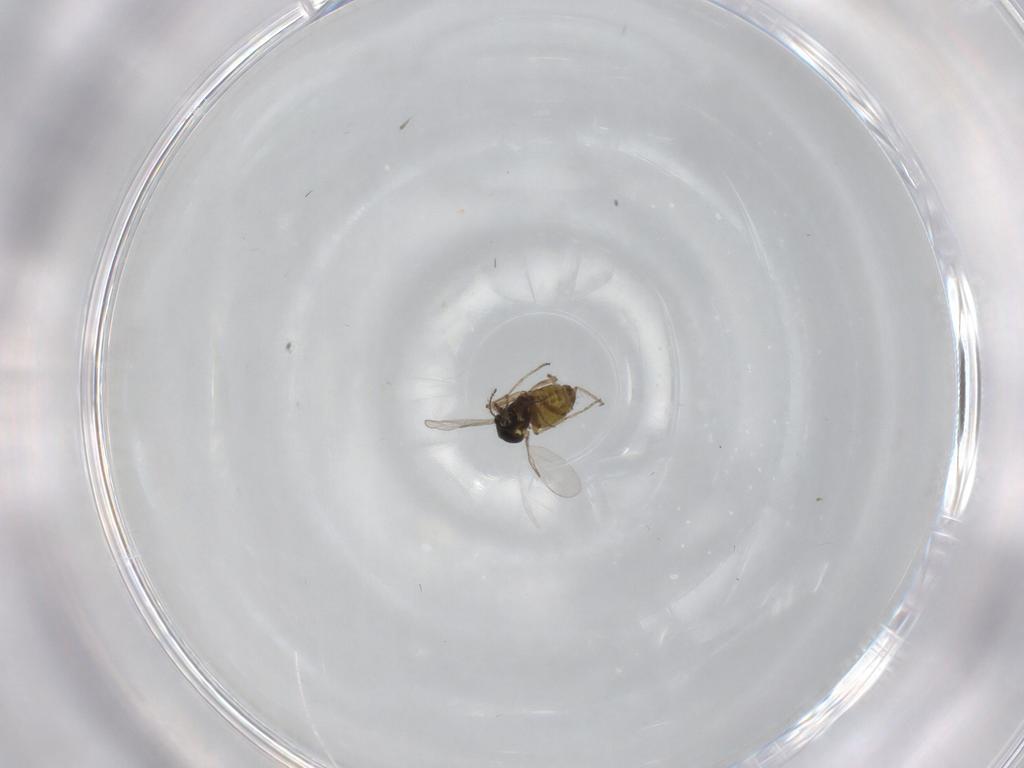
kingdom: Animalia
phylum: Arthropoda
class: Insecta
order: Diptera
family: Ceratopogonidae
